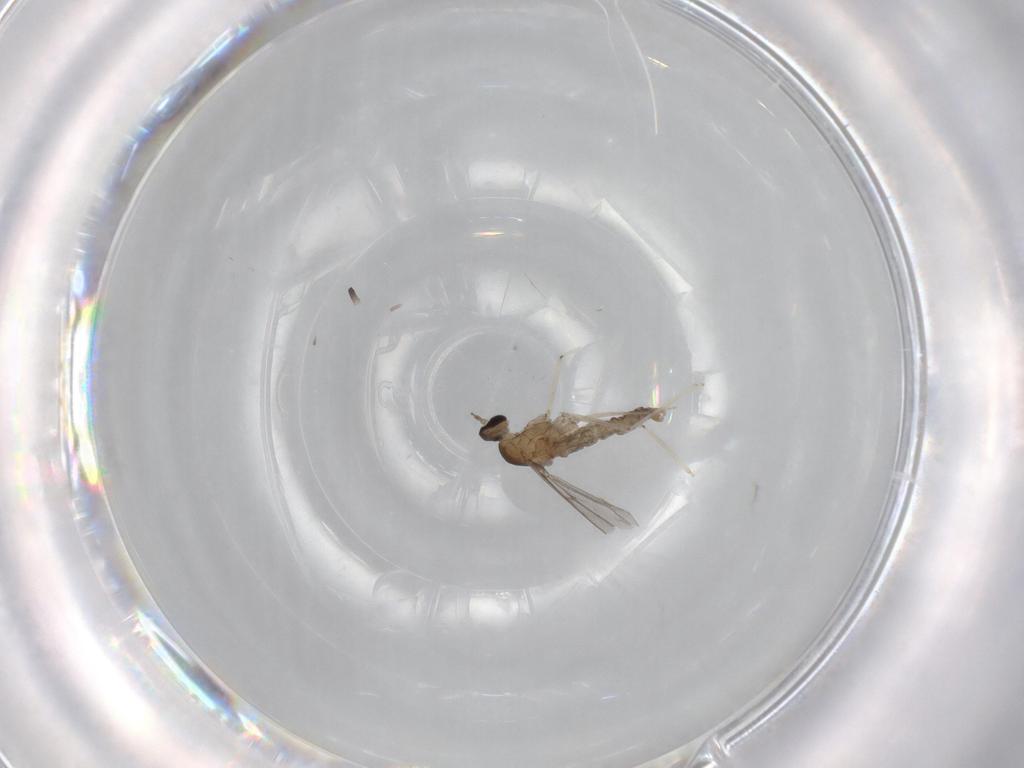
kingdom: Animalia
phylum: Arthropoda
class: Insecta
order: Diptera
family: Cecidomyiidae
